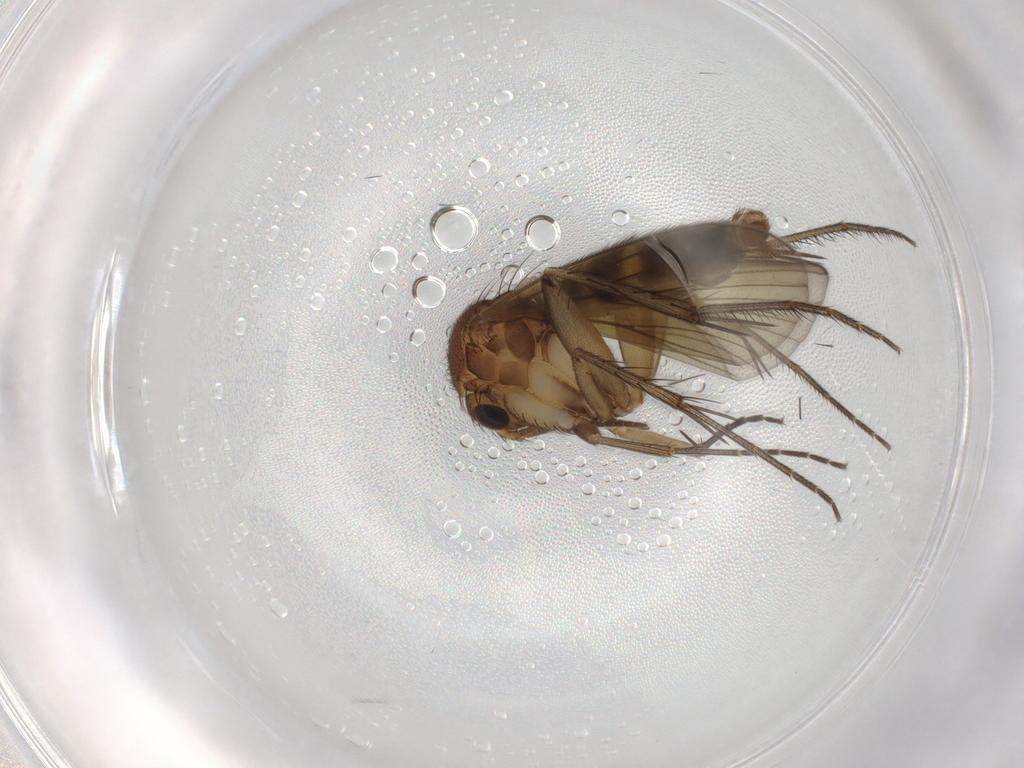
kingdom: Animalia
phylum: Arthropoda
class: Insecta
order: Diptera
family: Mycetophilidae
